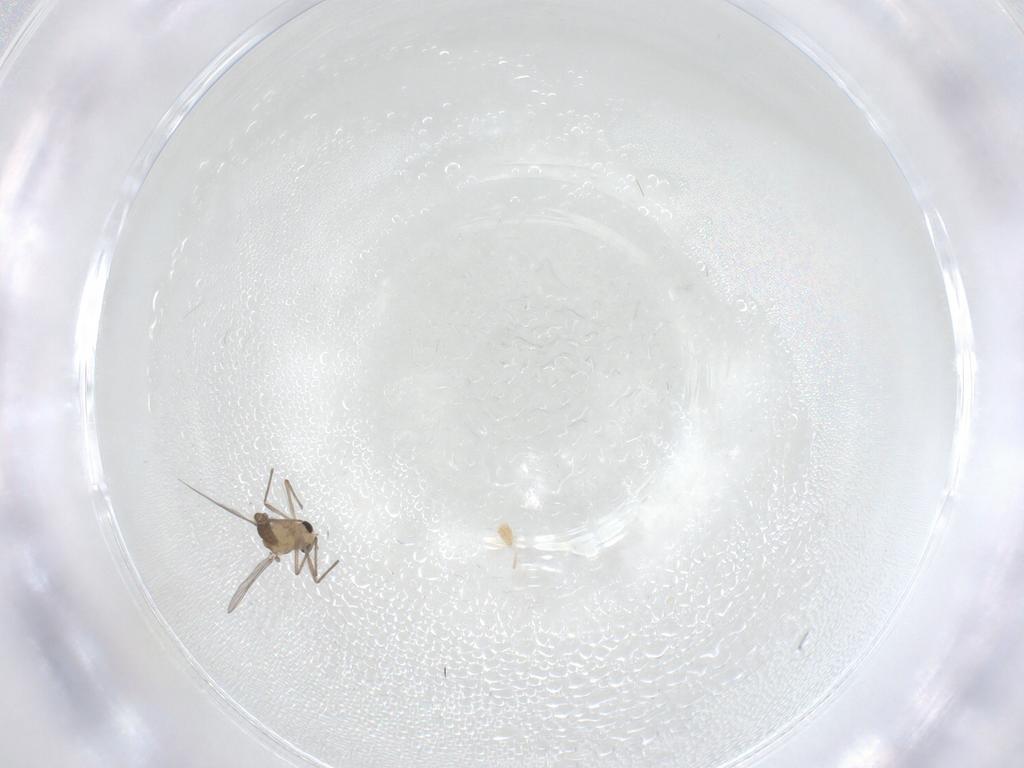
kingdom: Animalia
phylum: Arthropoda
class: Insecta
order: Diptera
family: Chironomidae
